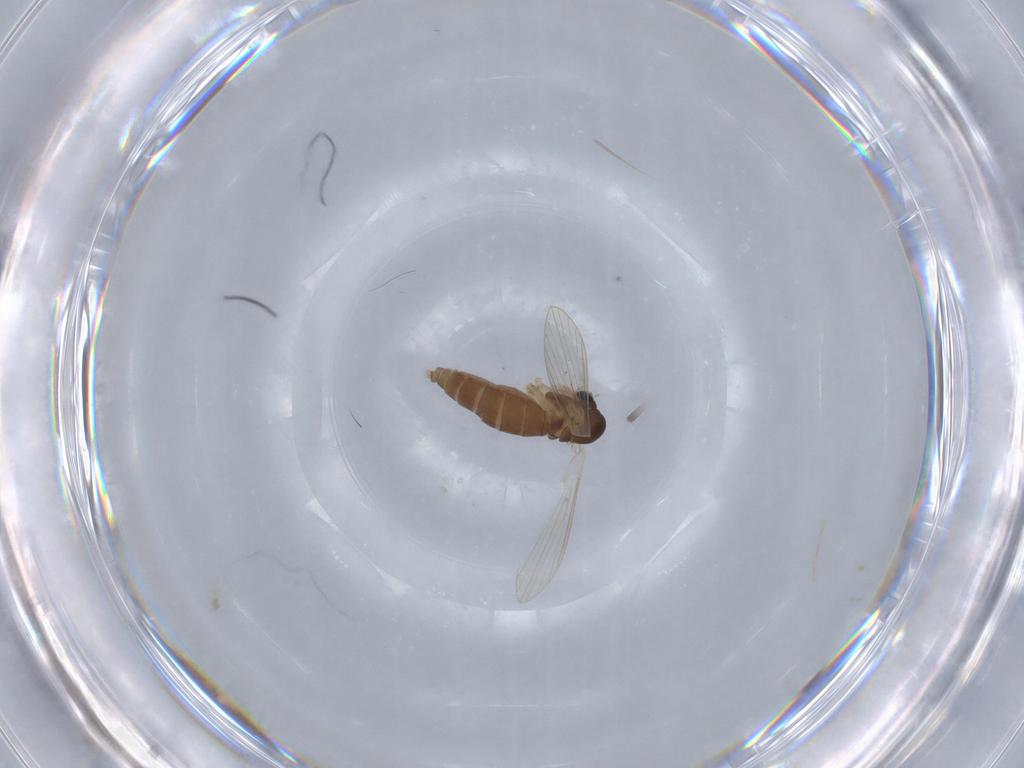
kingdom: Animalia
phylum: Arthropoda
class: Insecta
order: Diptera
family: Psychodidae
